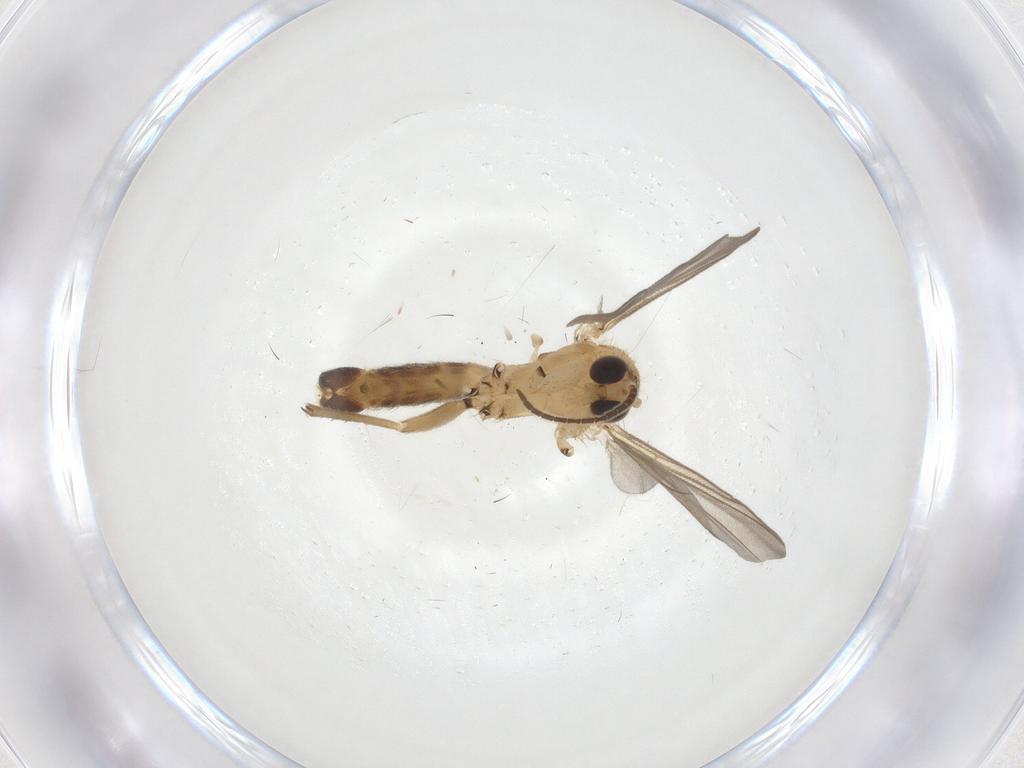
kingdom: Animalia
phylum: Arthropoda
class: Insecta
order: Diptera
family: Mycetophilidae
